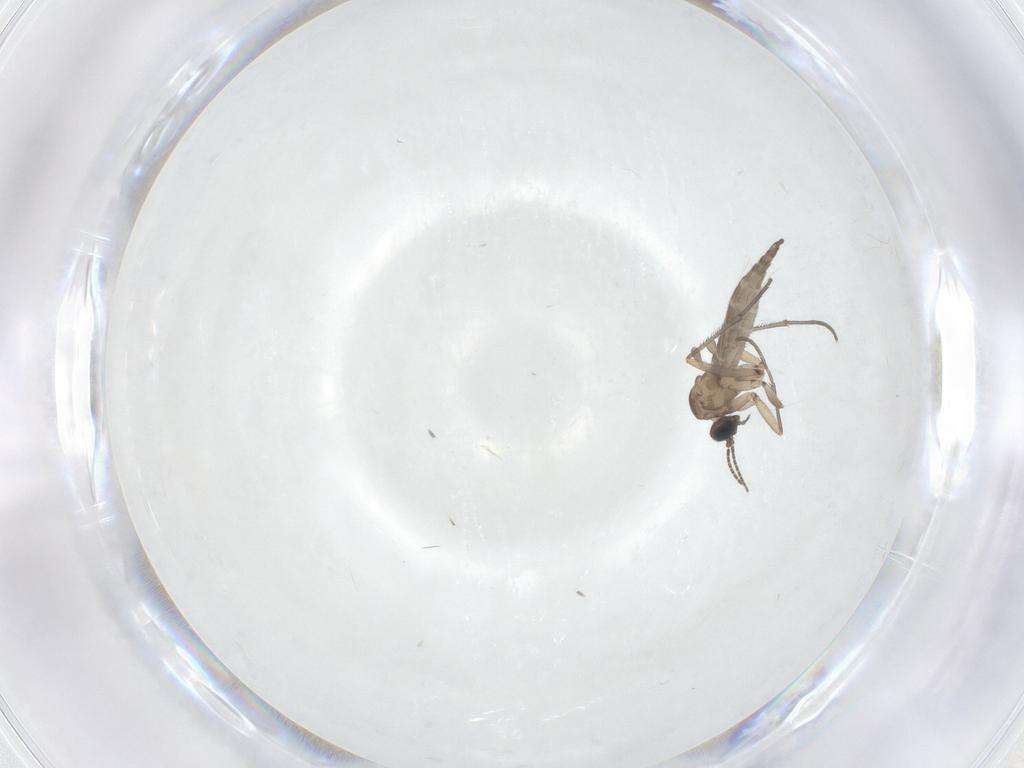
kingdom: Animalia
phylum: Arthropoda
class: Insecta
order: Diptera
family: Sciaridae
